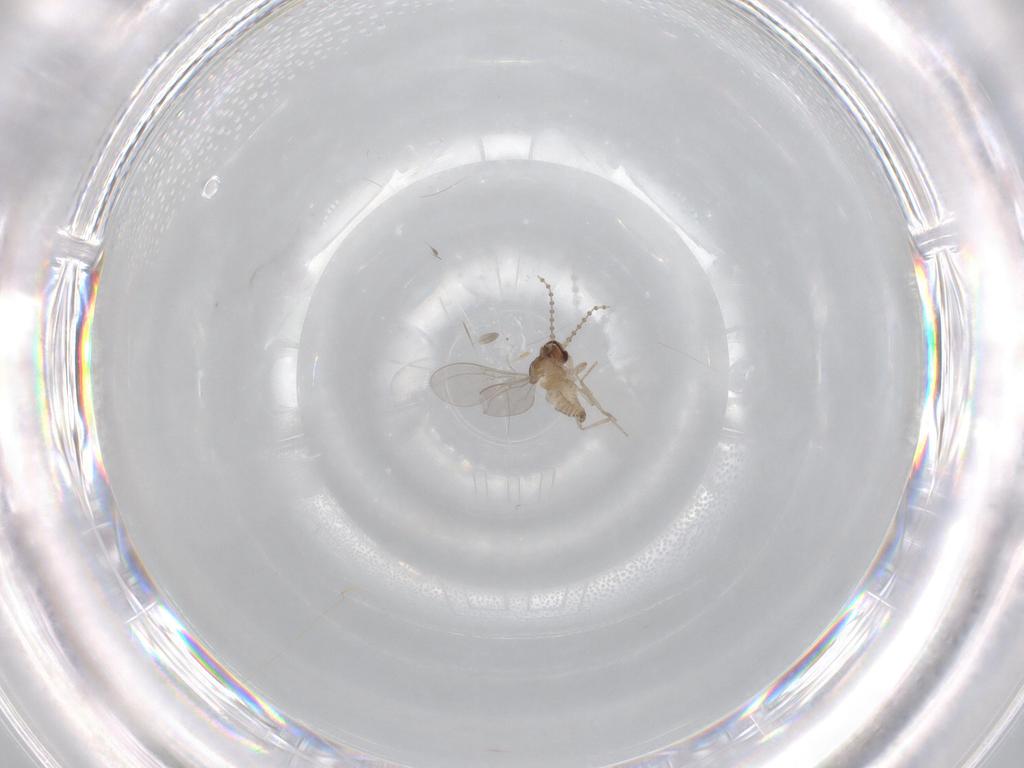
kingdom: Animalia
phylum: Arthropoda
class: Insecta
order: Diptera
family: Cecidomyiidae
